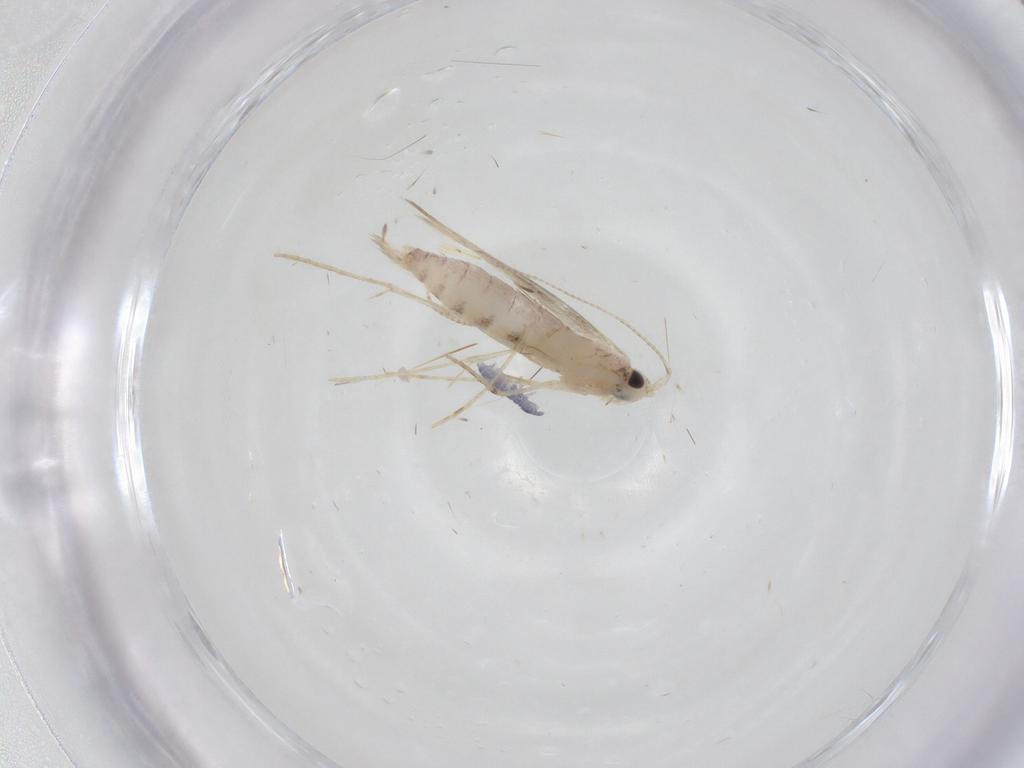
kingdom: Animalia
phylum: Arthropoda
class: Collembola
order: Poduromorpha
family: Hypogastruridae
